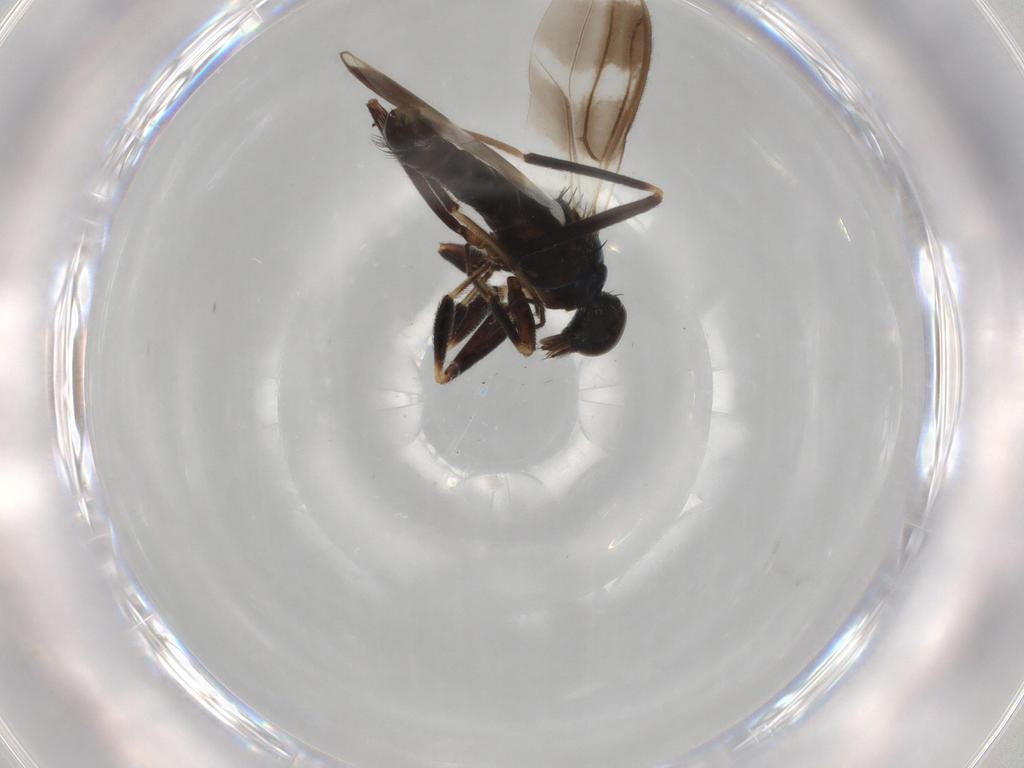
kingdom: Animalia
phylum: Arthropoda
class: Insecta
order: Diptera
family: Hybotidae
